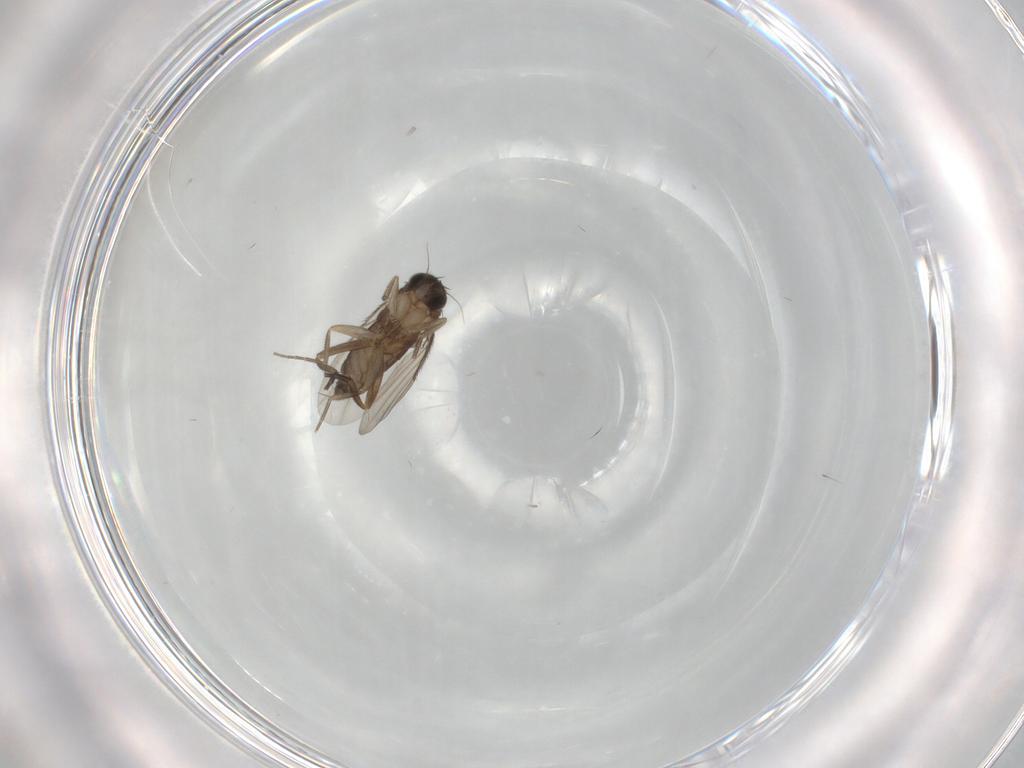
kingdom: Animalia
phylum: Arthropoda
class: Insecta
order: Diptera
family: Phoridae
